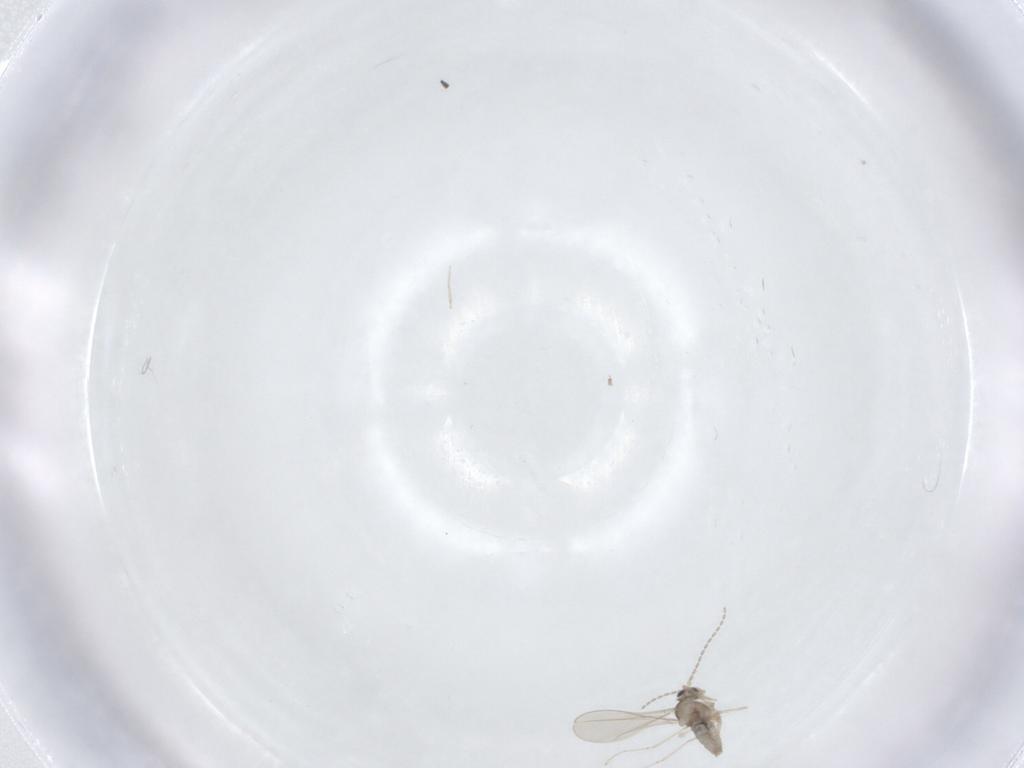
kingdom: Animalia
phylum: Arthropoda
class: Insecta
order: Diptera
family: Cecidomyiidae
